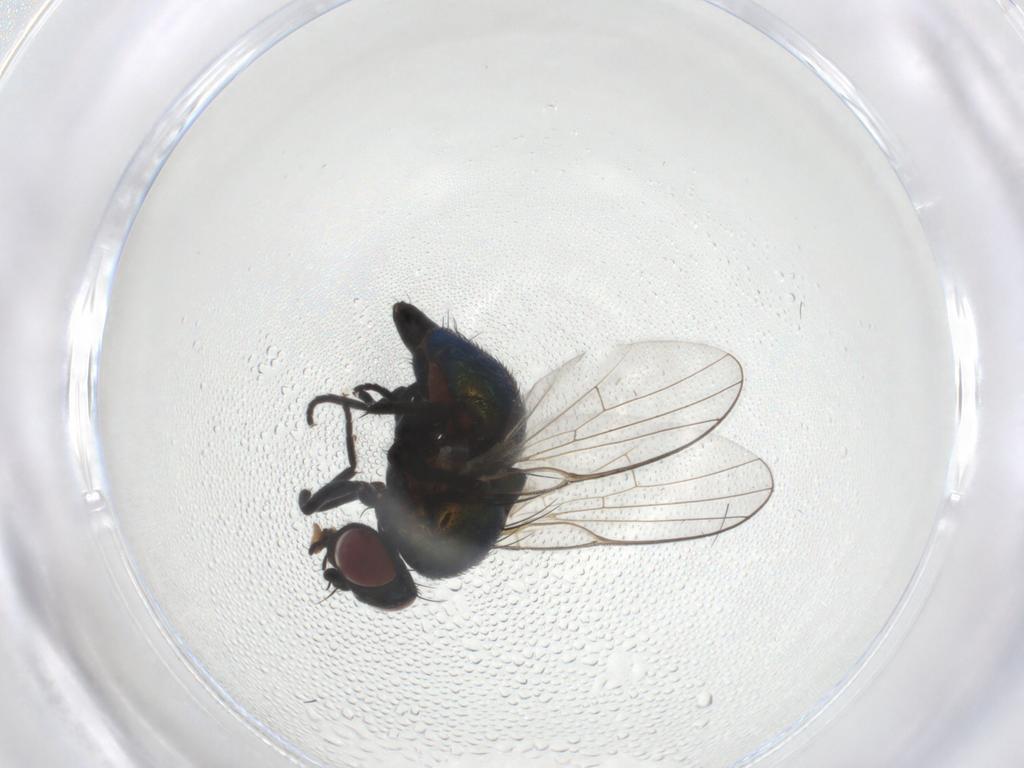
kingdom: Animalia
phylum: Arthropoda
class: Insecta
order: Diptera
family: Agromyzidae
